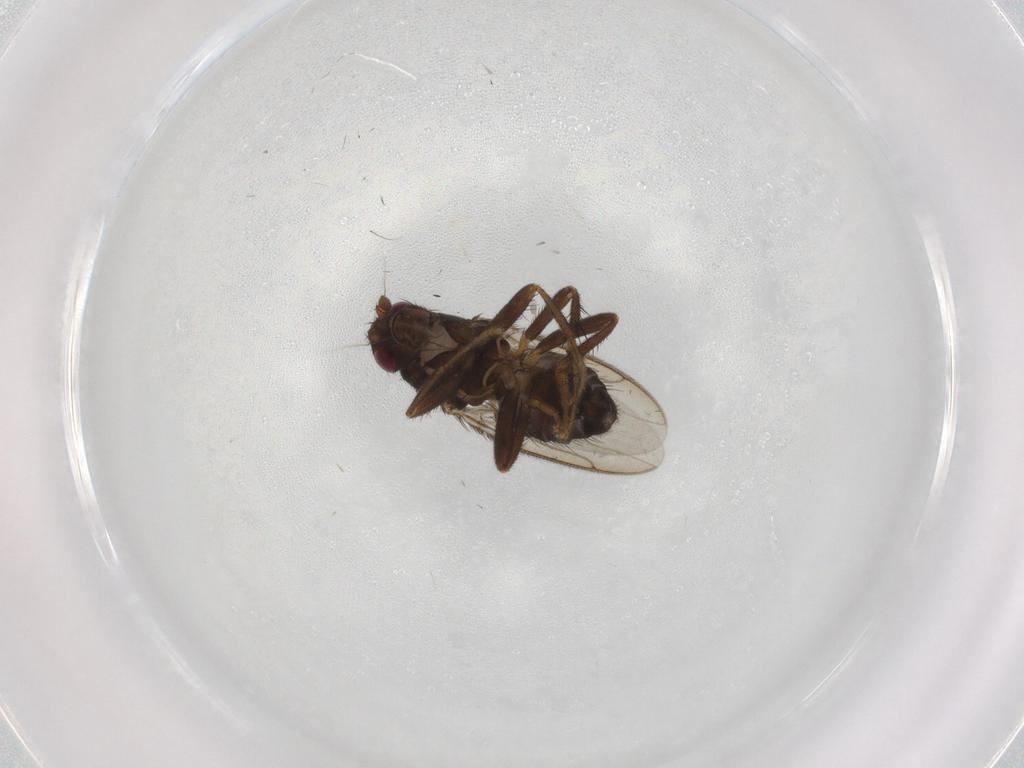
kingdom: Animalia
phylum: Arthropoda
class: Insecta
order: Diptera
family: Sphaeroceridae
